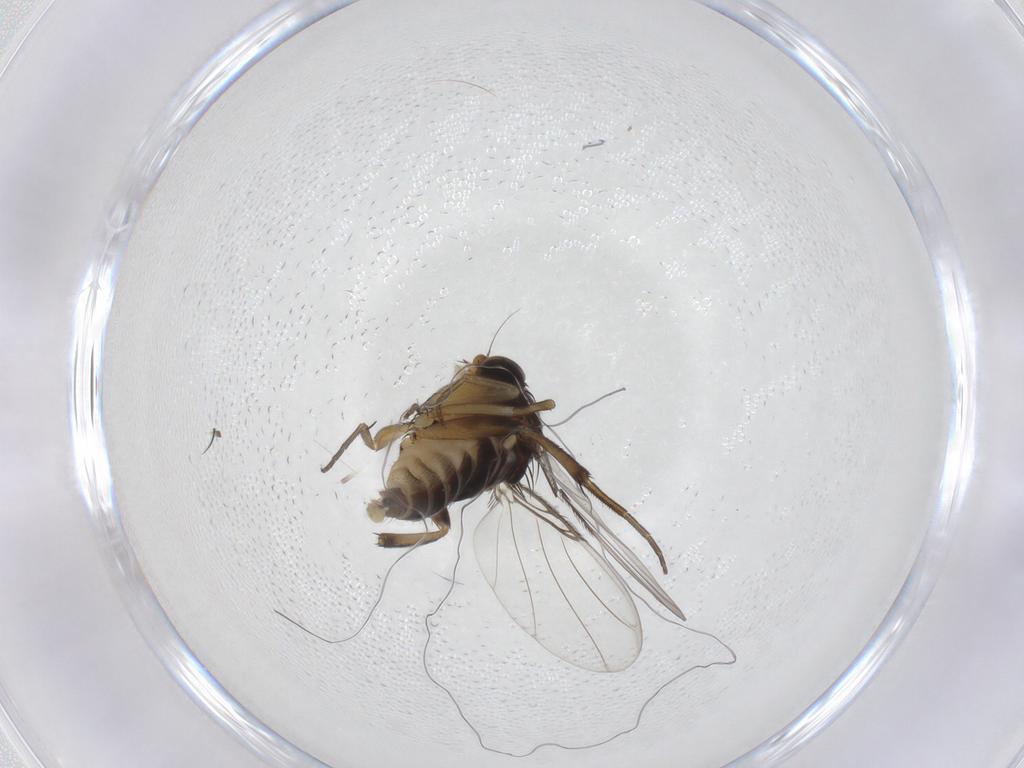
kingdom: Animalia
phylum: Arthropoda
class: Insecta
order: Diptera
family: Phoridae
